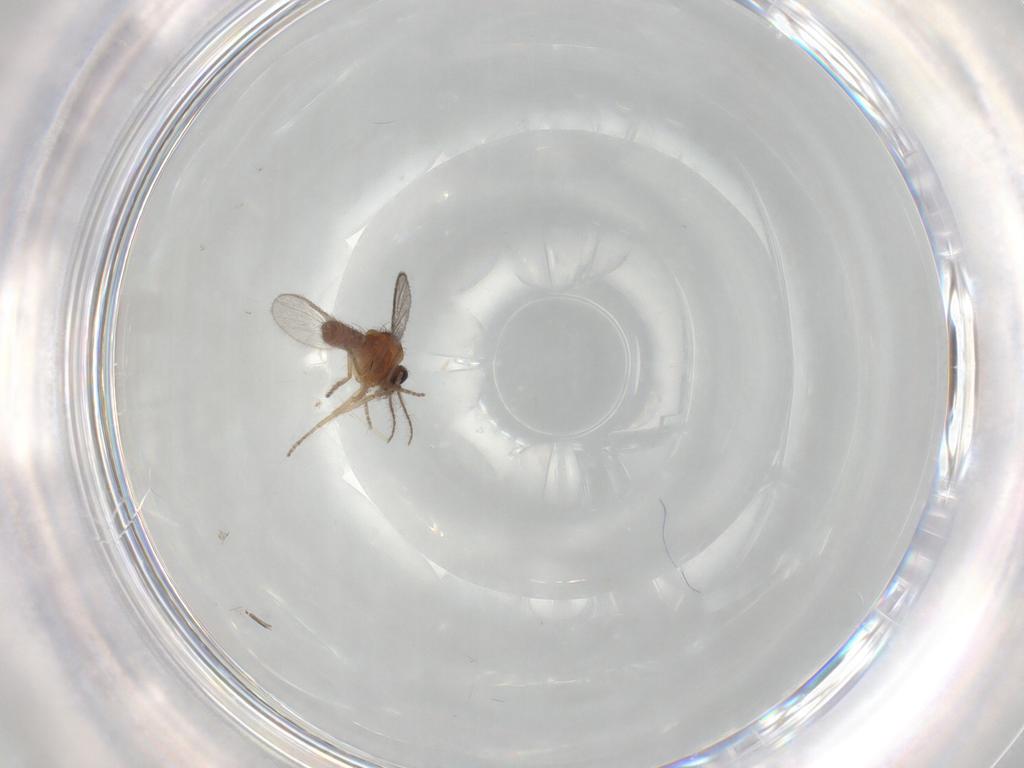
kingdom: Animalia
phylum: Arthropoda
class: Insecta
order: Diptera
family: Ceratopogonidae
